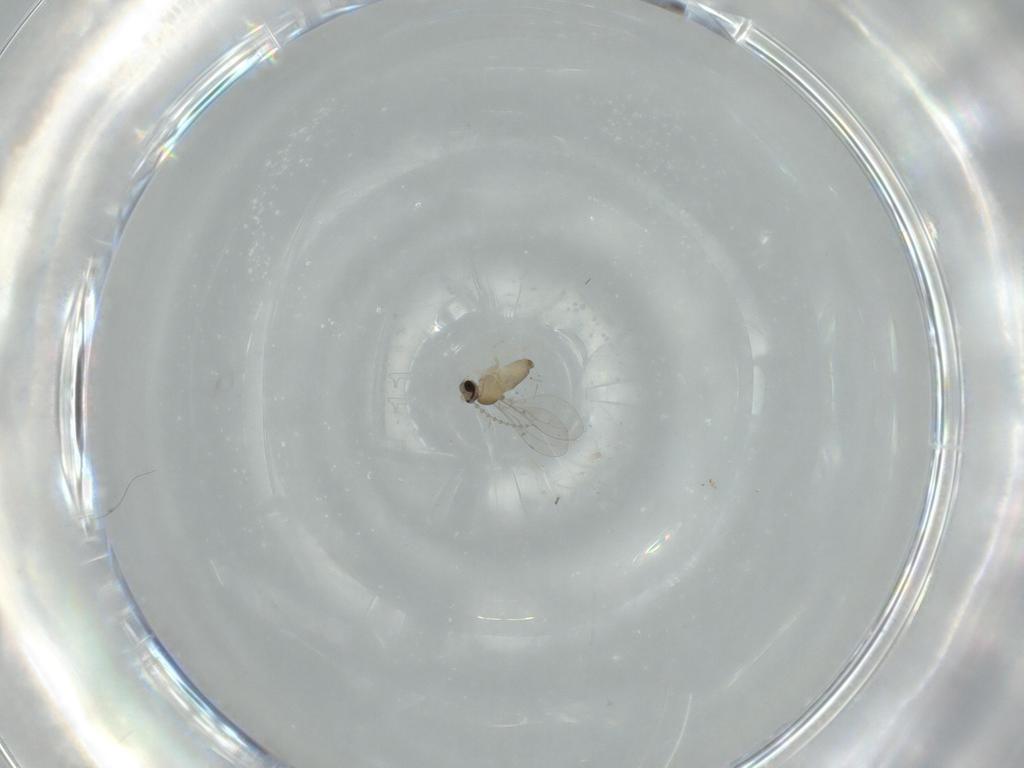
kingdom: Animalia
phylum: Arthropoda
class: Insecta
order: Diptera
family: Cecidomyiidae
